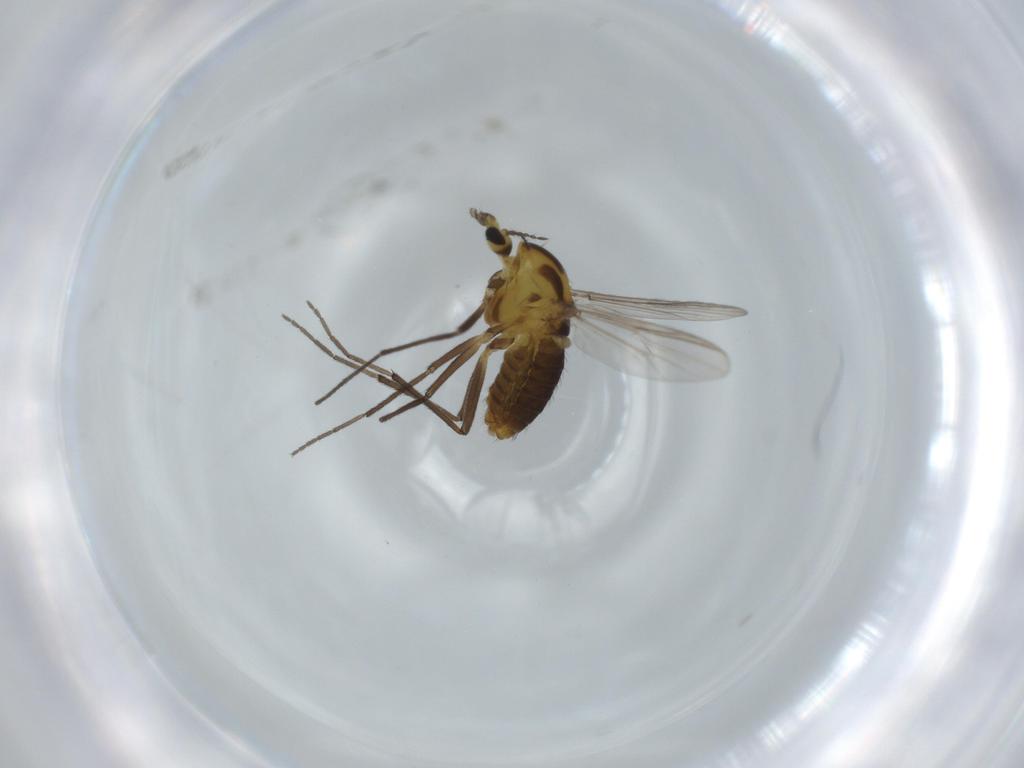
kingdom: Animalia
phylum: Arthropoda
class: Insecta
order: Diptera
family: Chironomidae
